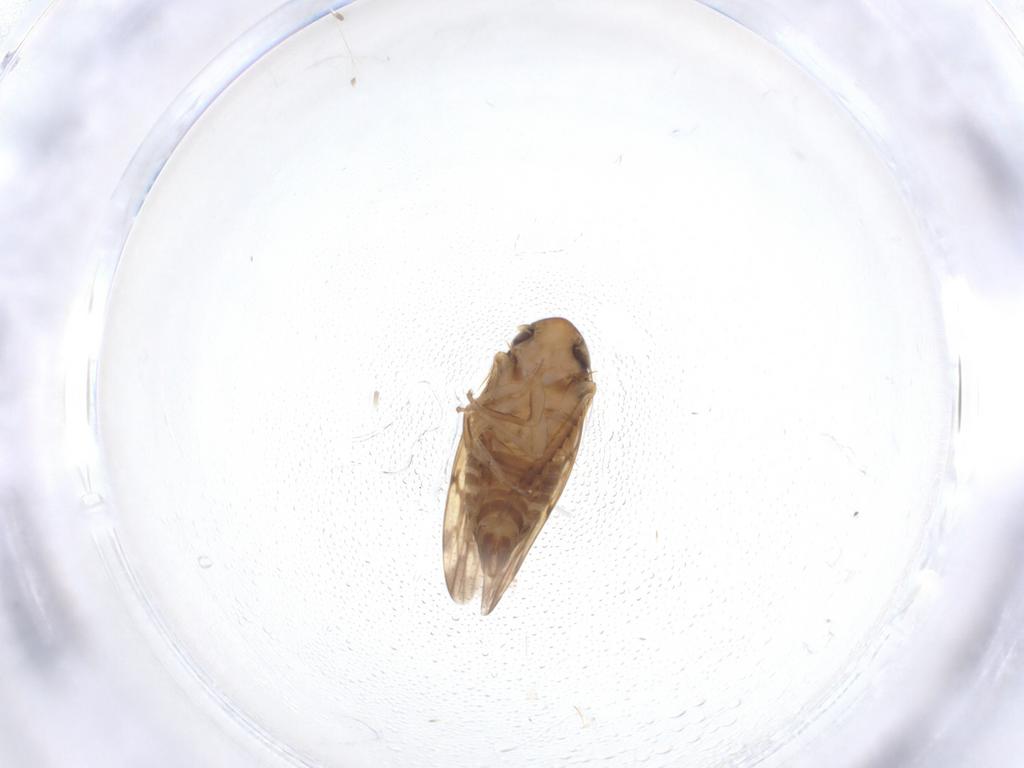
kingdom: Animalia
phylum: Arthropoda
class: Insecta
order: Hemiptera
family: Cicadellidae
